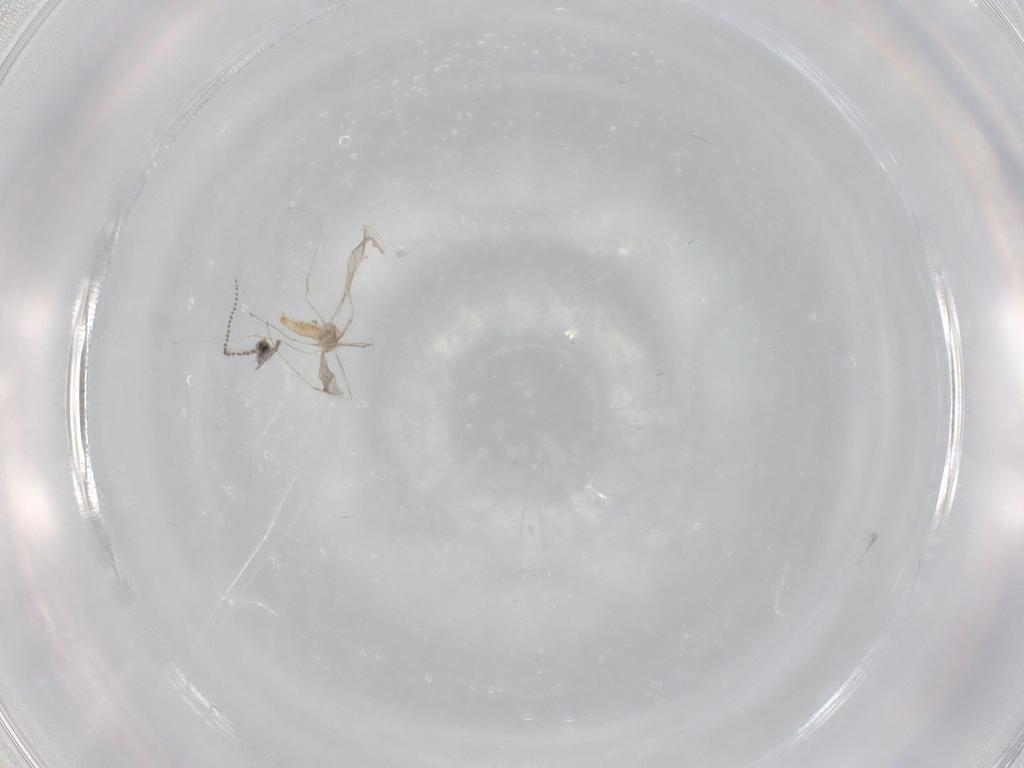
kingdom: Animalia
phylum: Arthropoda
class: Insecta
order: Diptera
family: Cecidomyiidae
